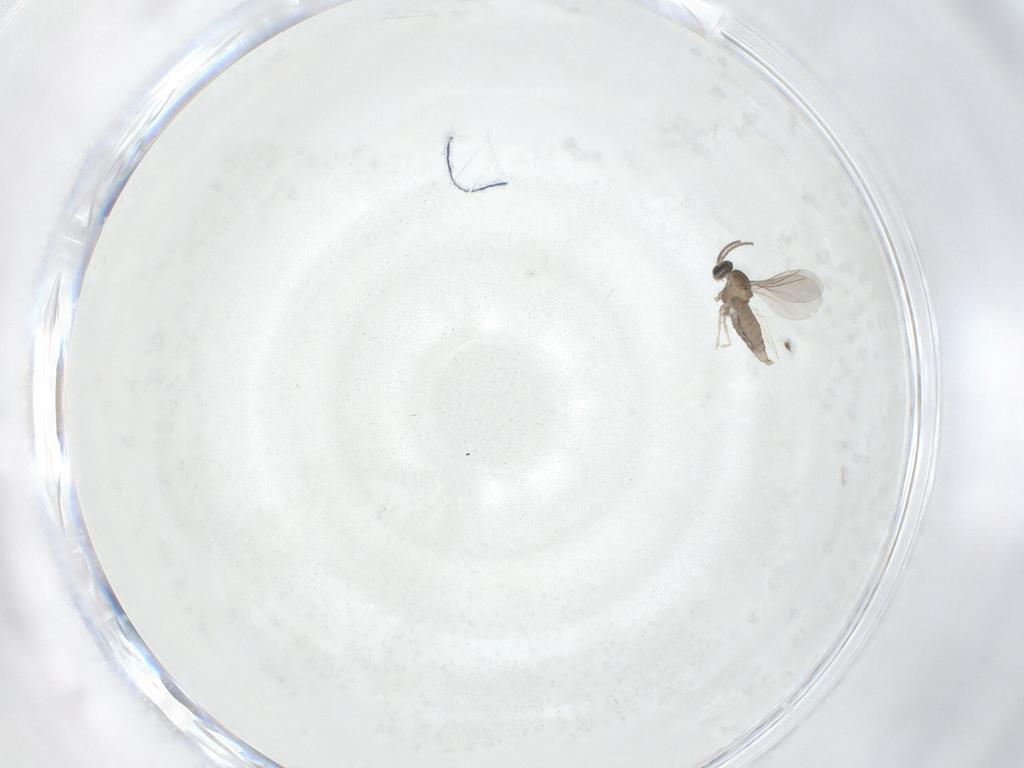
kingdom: Animalia
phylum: Arthropoda
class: Insecta
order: Diptera
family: Cecidomyiidae
